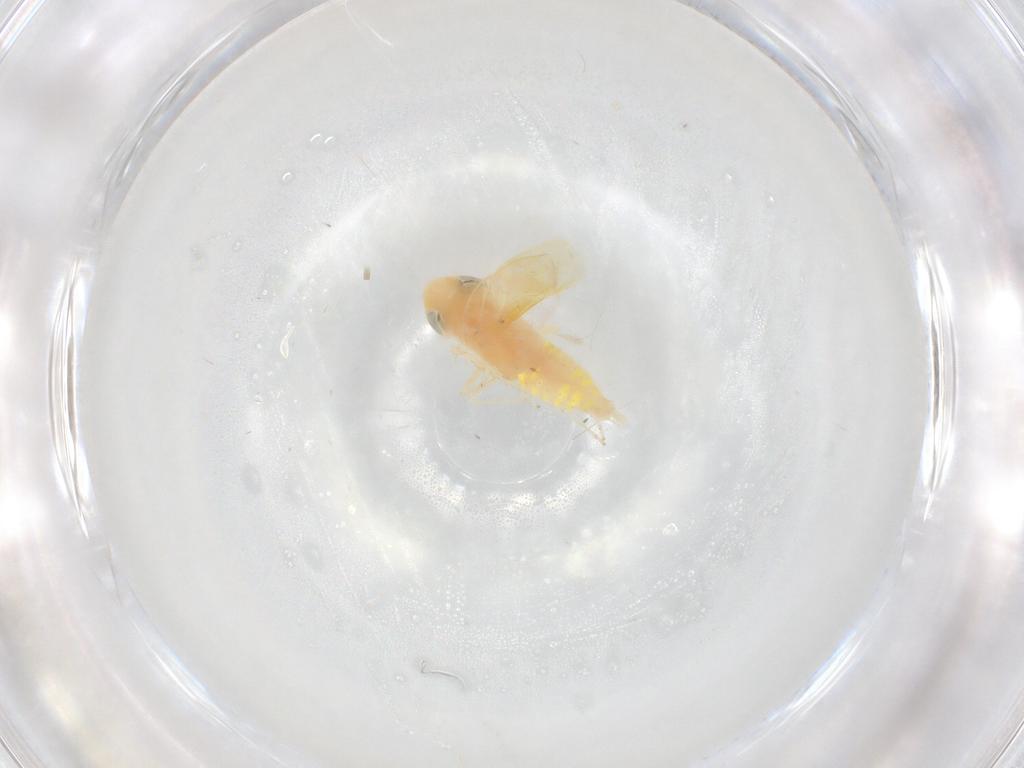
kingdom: Animalia
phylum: Arthropoda
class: Insecta
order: Hemiptera
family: Cicadellidae
